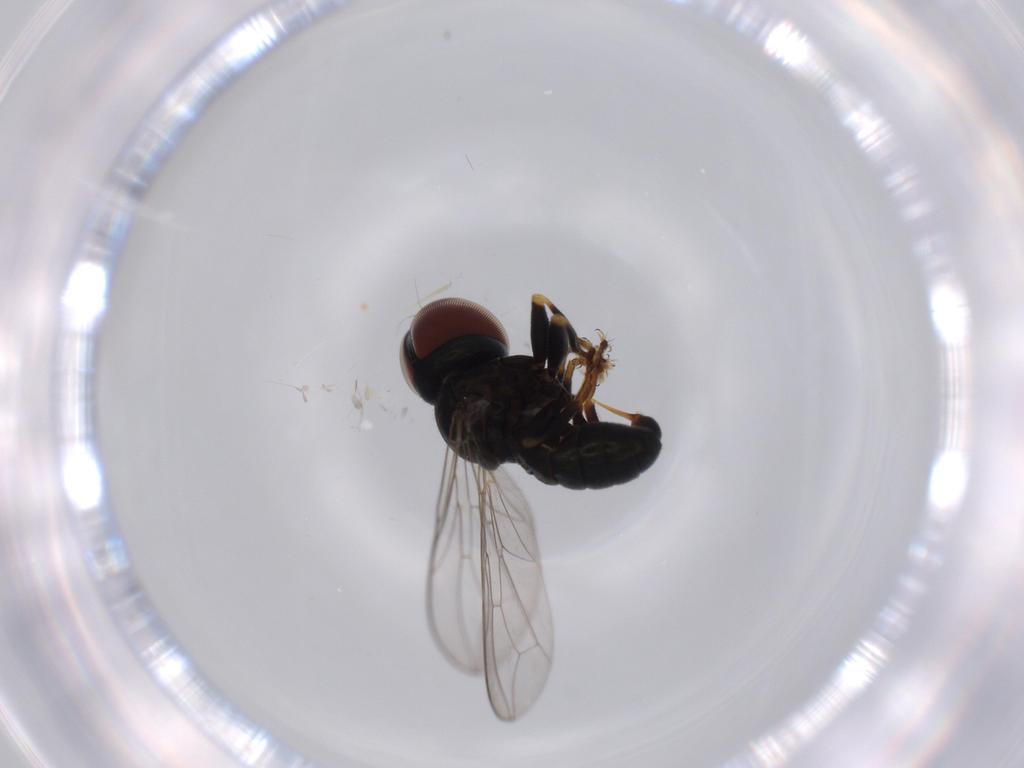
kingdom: Animalia
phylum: Arthropoda
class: Insecta
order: Diptera
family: Pipunculidae
